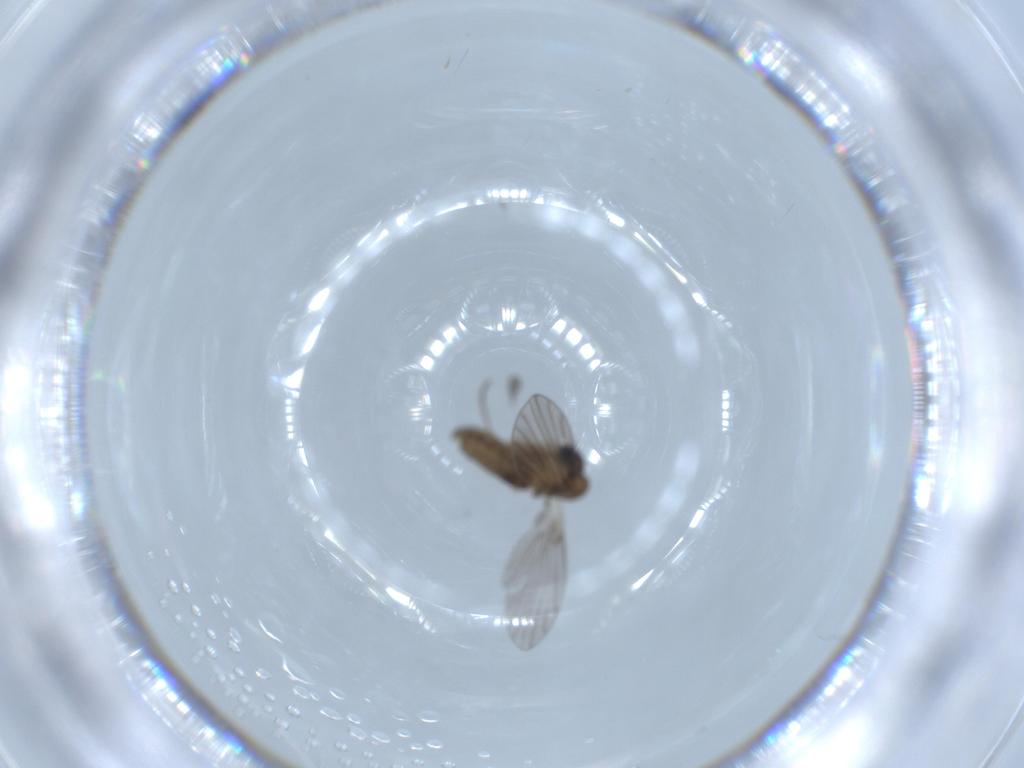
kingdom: Animalia
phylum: Arthropoda
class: Insecta
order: Diptera
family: Psychodidae
